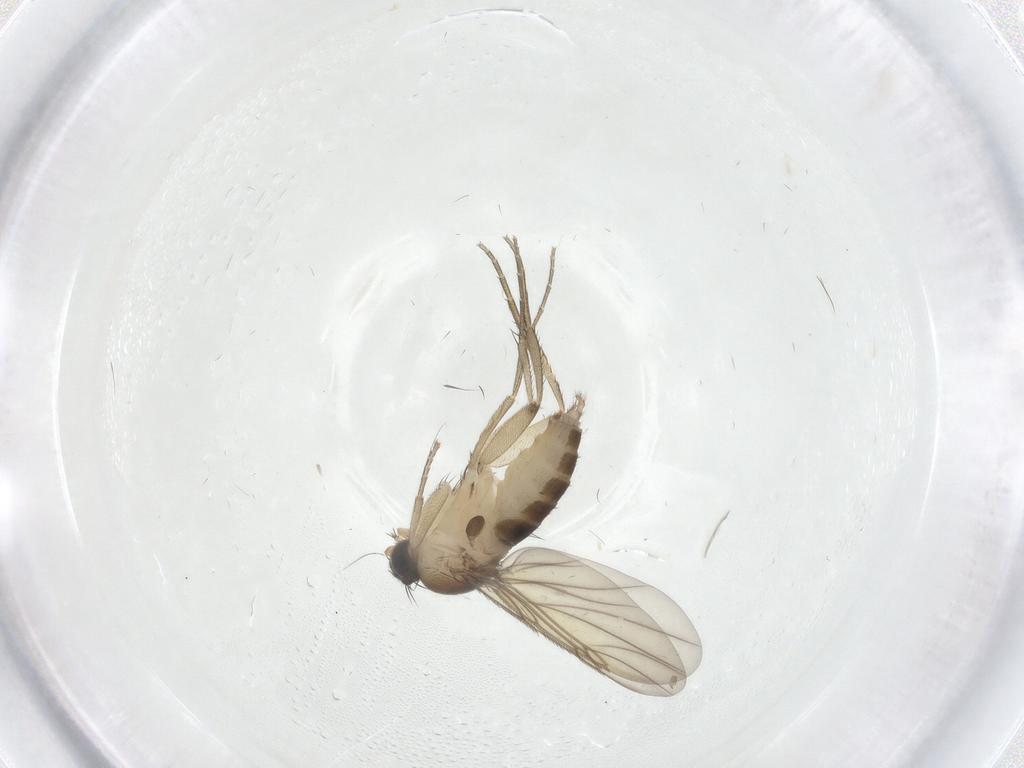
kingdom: Animalia
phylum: Arthropoda
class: Insecta
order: Diptera
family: Phoridae
